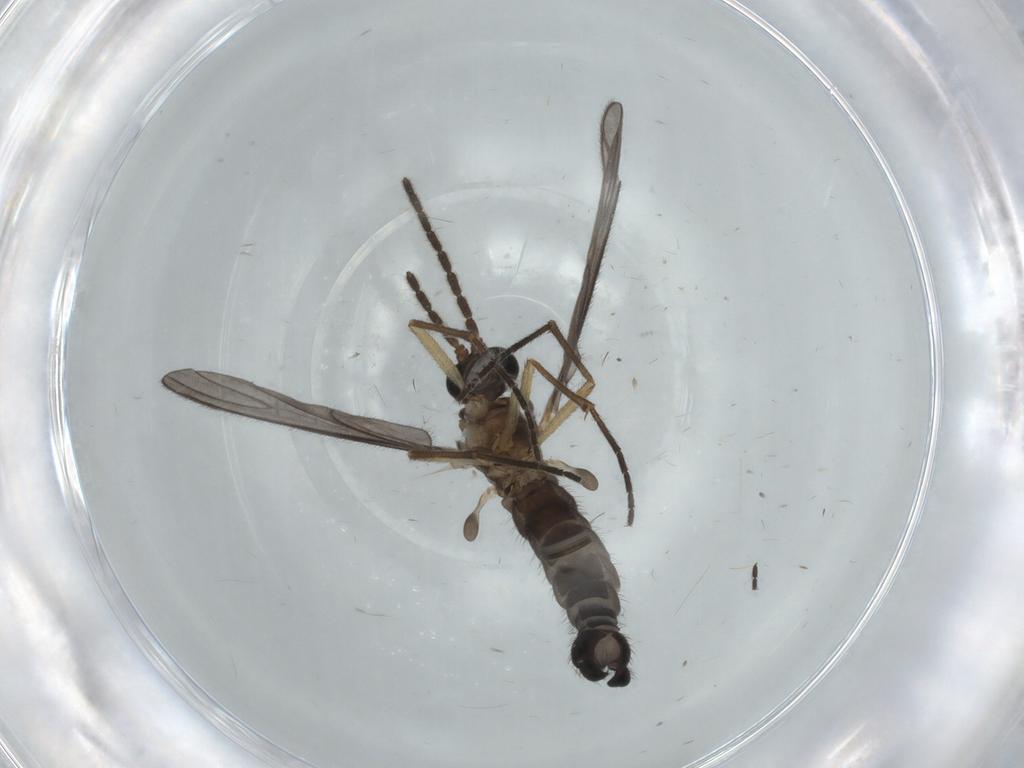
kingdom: Animalia
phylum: Arthropoda
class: Insecta
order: Diptera
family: Sciaridae
